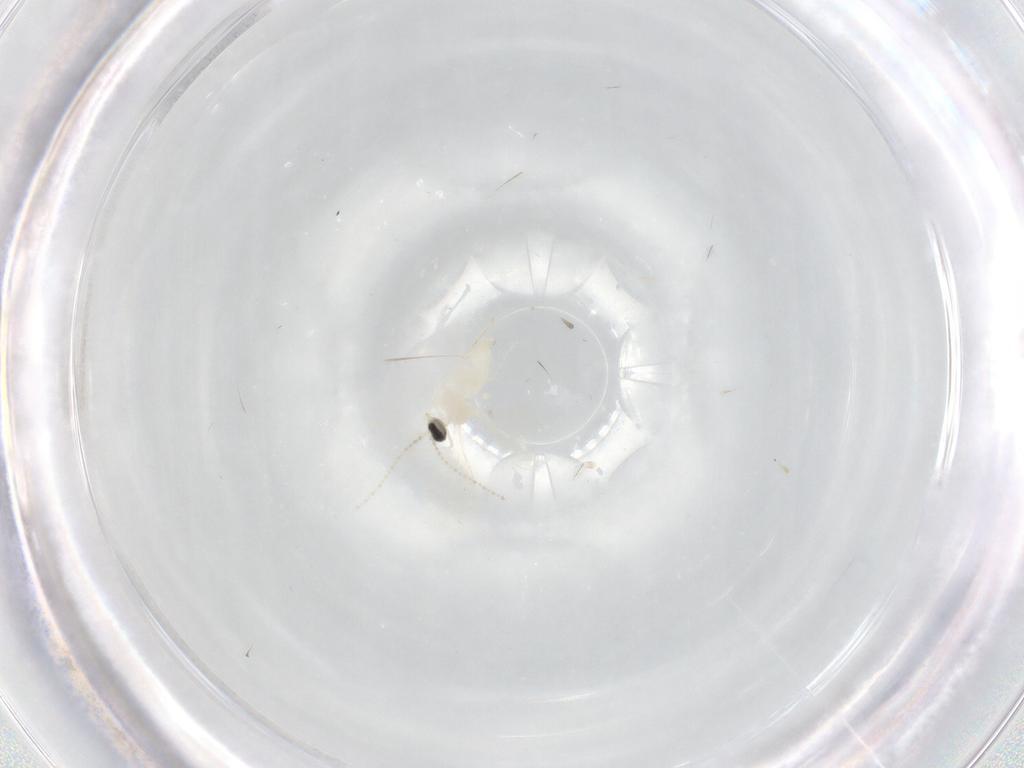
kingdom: Animalia
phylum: Arthropoda
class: Insecta
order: Diptera
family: Cecidomyiidae
